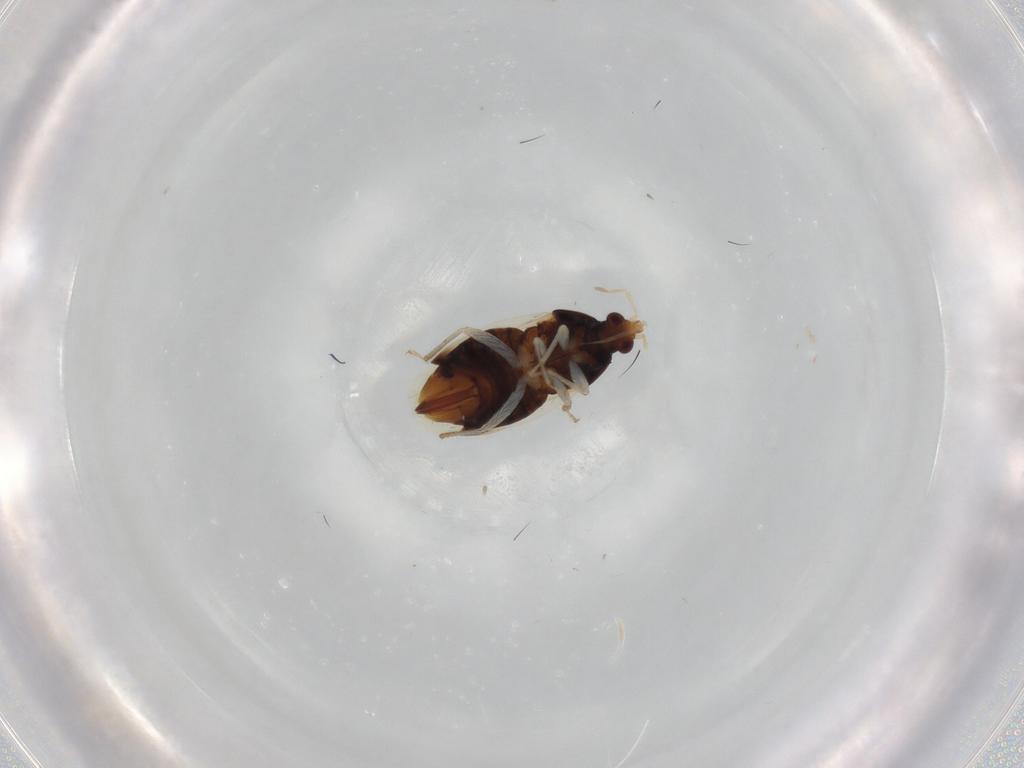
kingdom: Animalia
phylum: Arthropoda
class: Insecta
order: Hemiptera
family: Anthocoridae
